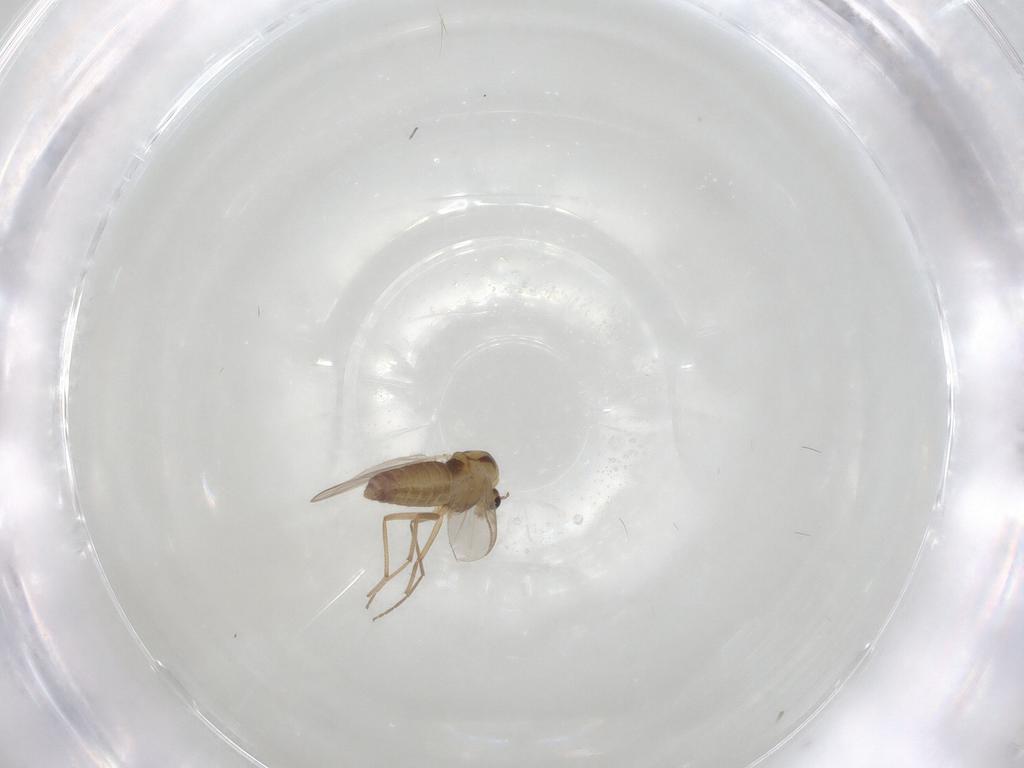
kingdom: Animalia
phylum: Arthropoda
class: Insecta
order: Diptera
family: Chironomidae
